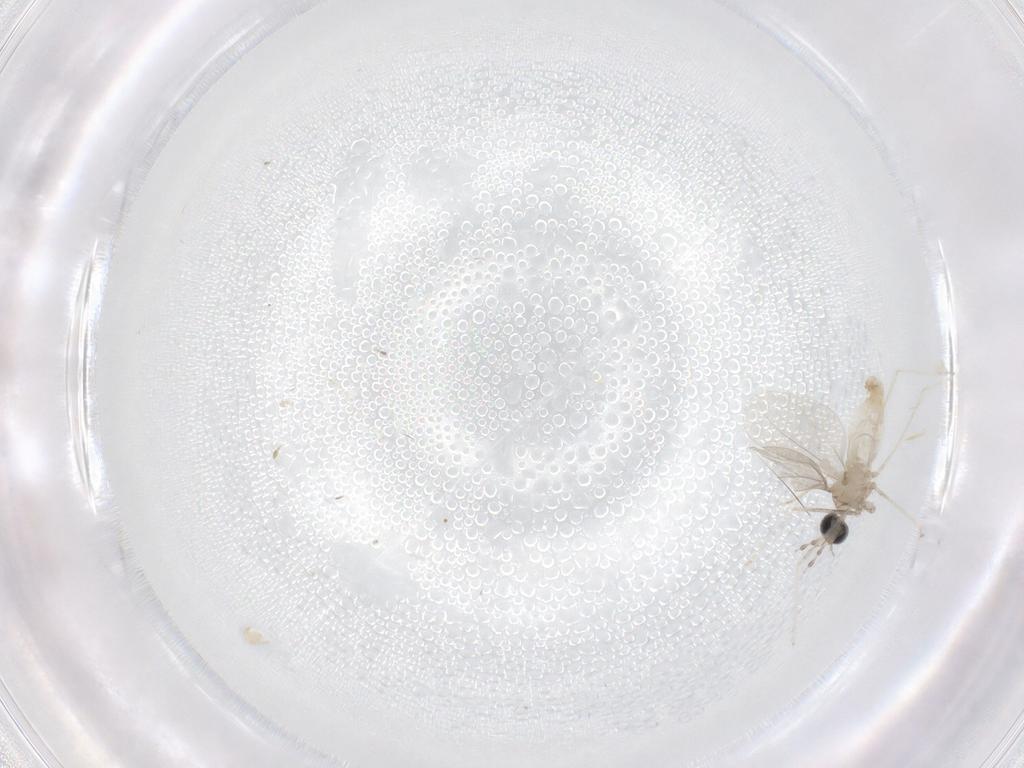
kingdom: Animalia
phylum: Arthropoda
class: Insecta
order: Diptera
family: Cecidomyiidae
